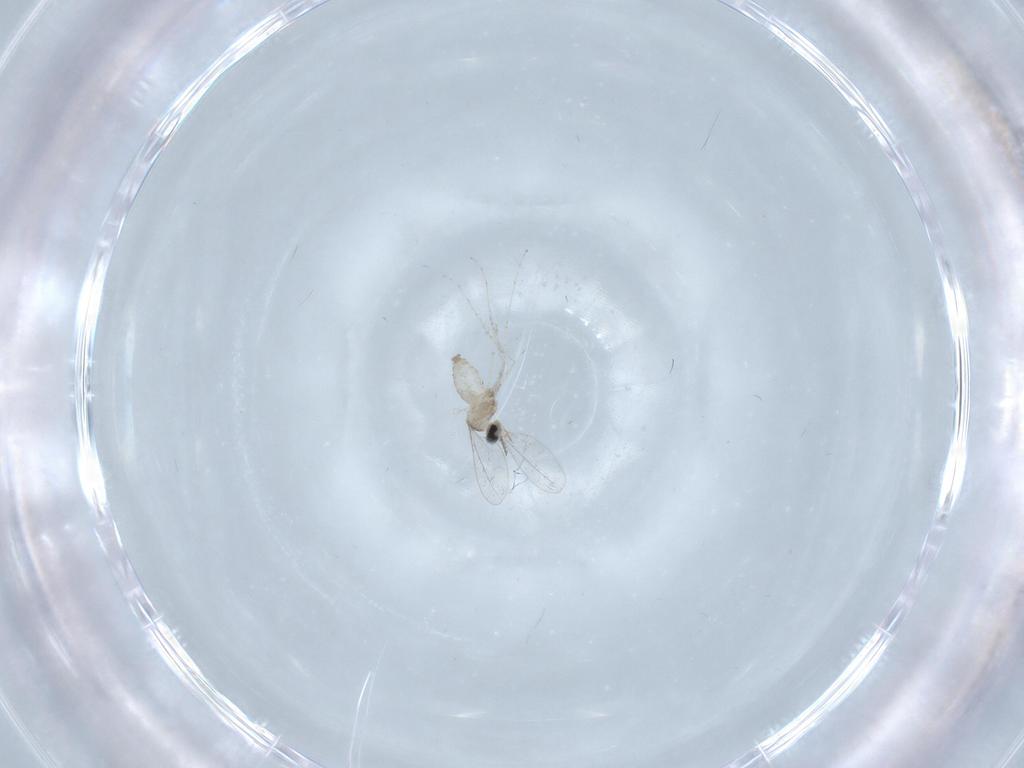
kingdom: Animalia
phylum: Arthropoda
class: Insecta
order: Diptera
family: Cecidomyiidae
